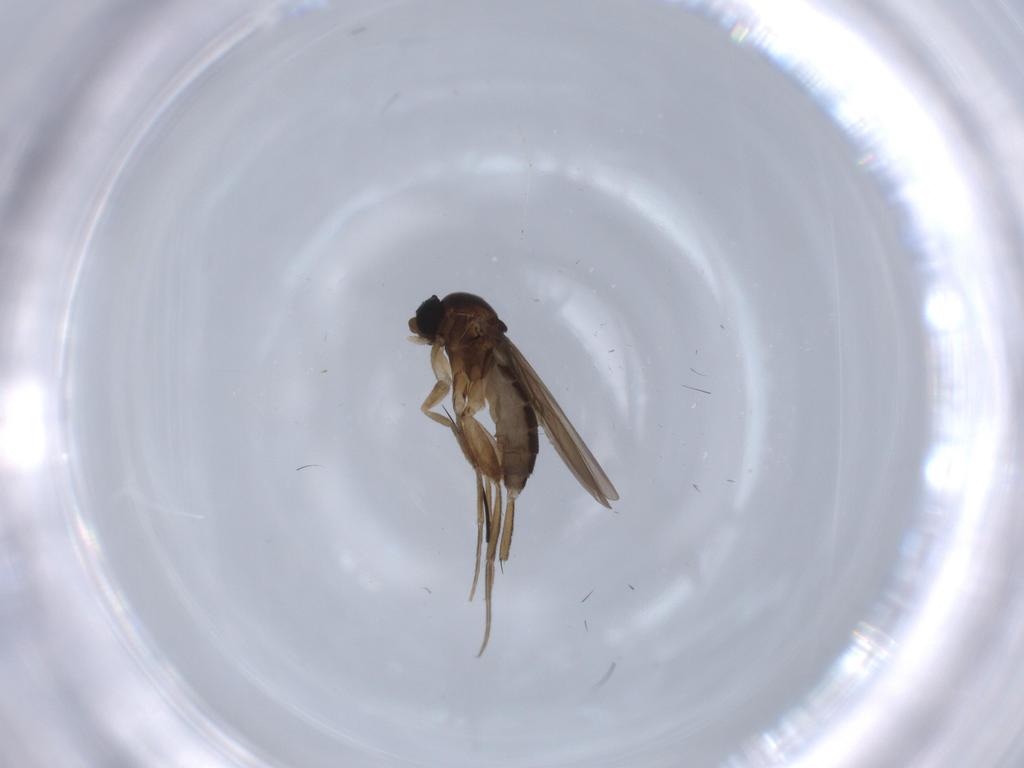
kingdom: Animalia
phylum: Arthropoda
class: Insecta
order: Diptera
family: Phoridae
